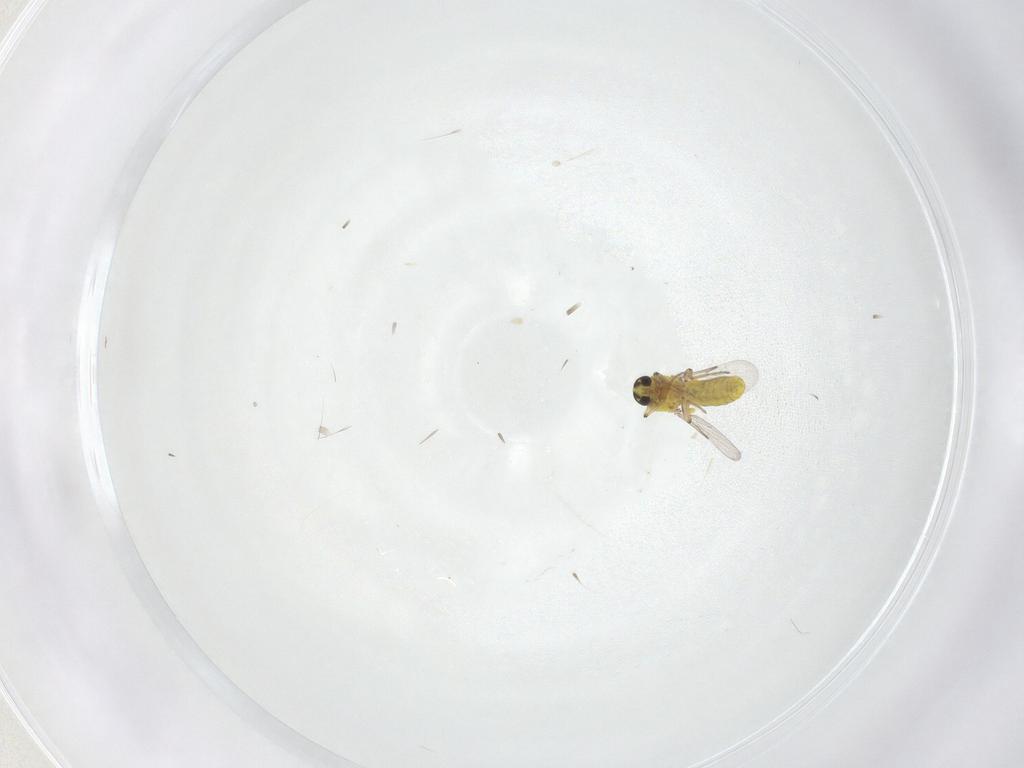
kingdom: Animalia
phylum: Arthropoda
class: Insecta
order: Diptera
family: Ceratopogonidae
